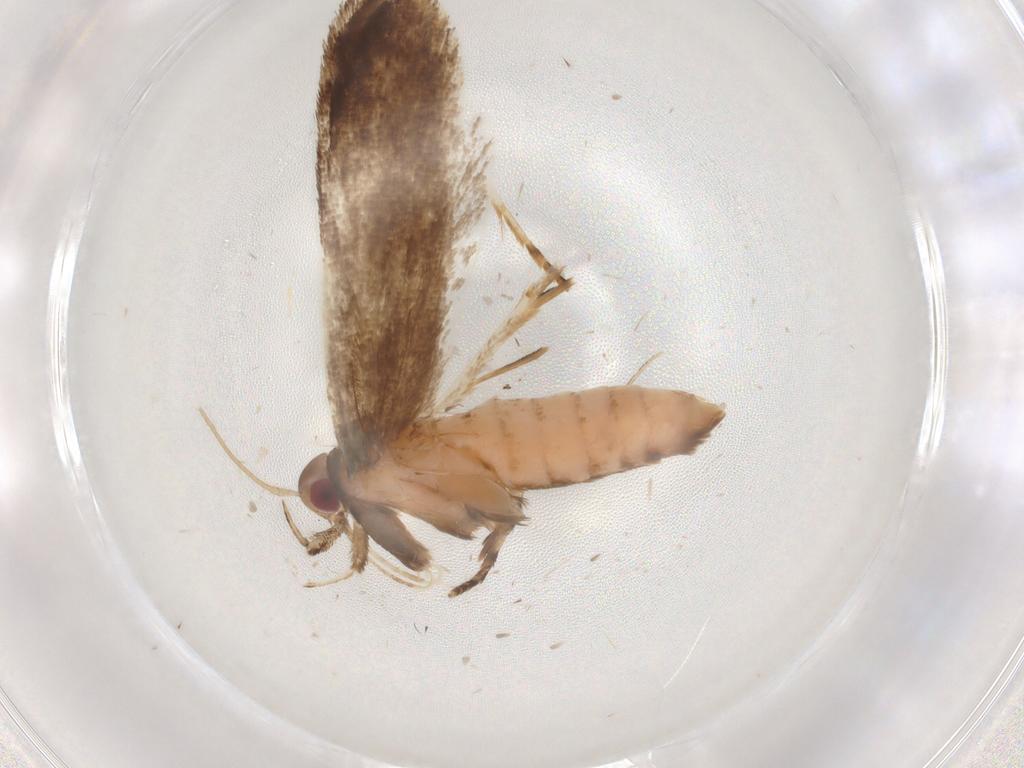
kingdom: Animalia
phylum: Arthropoda
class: Insecta
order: Lepidoptera
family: Gelechiidae
